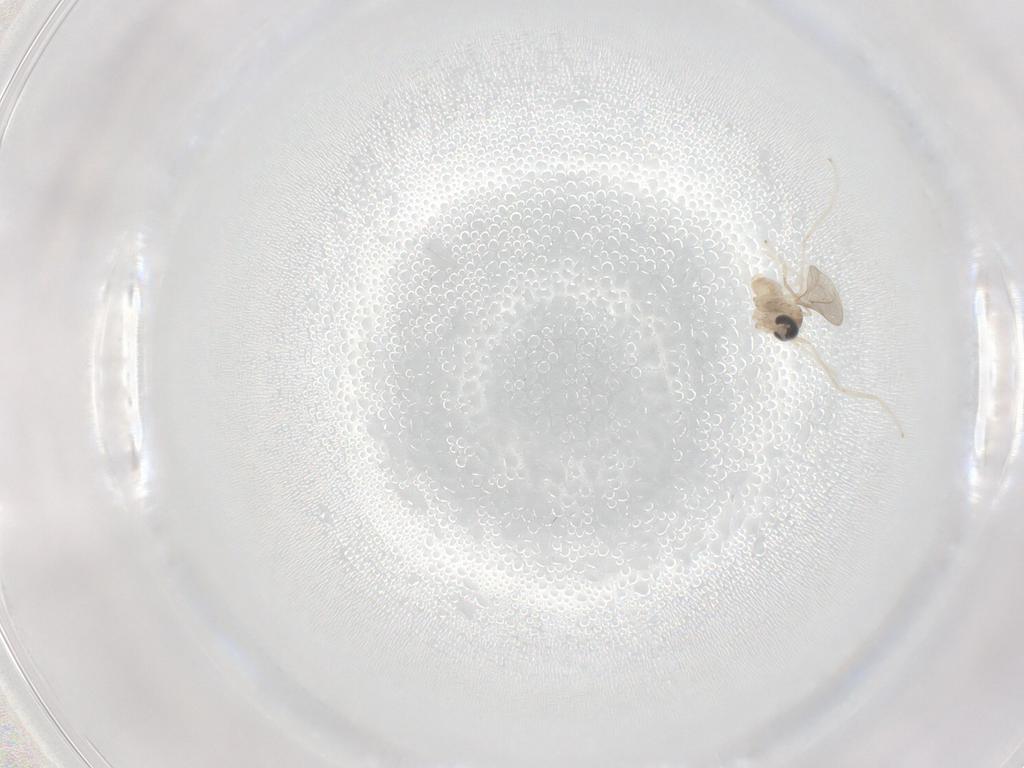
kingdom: Animalia
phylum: Arthropoda
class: Insecta
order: Diptera
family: Cecidomyiidae
